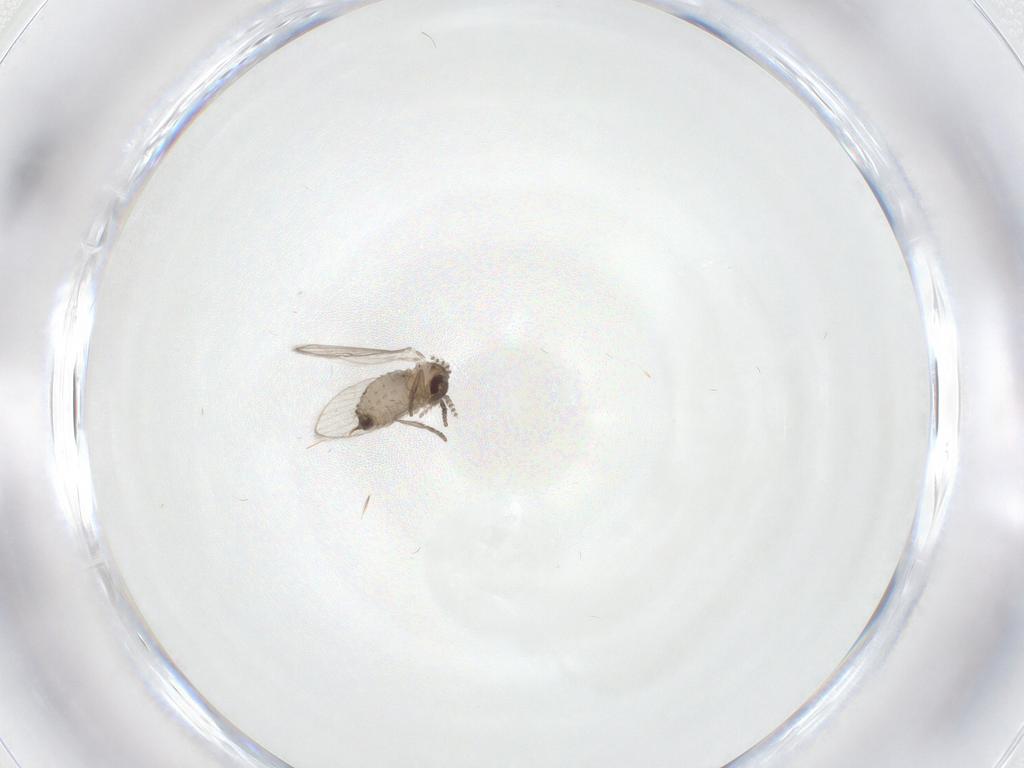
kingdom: Animalia
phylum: Arthropoda
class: Insecta
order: Diptera
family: Psychodidae
